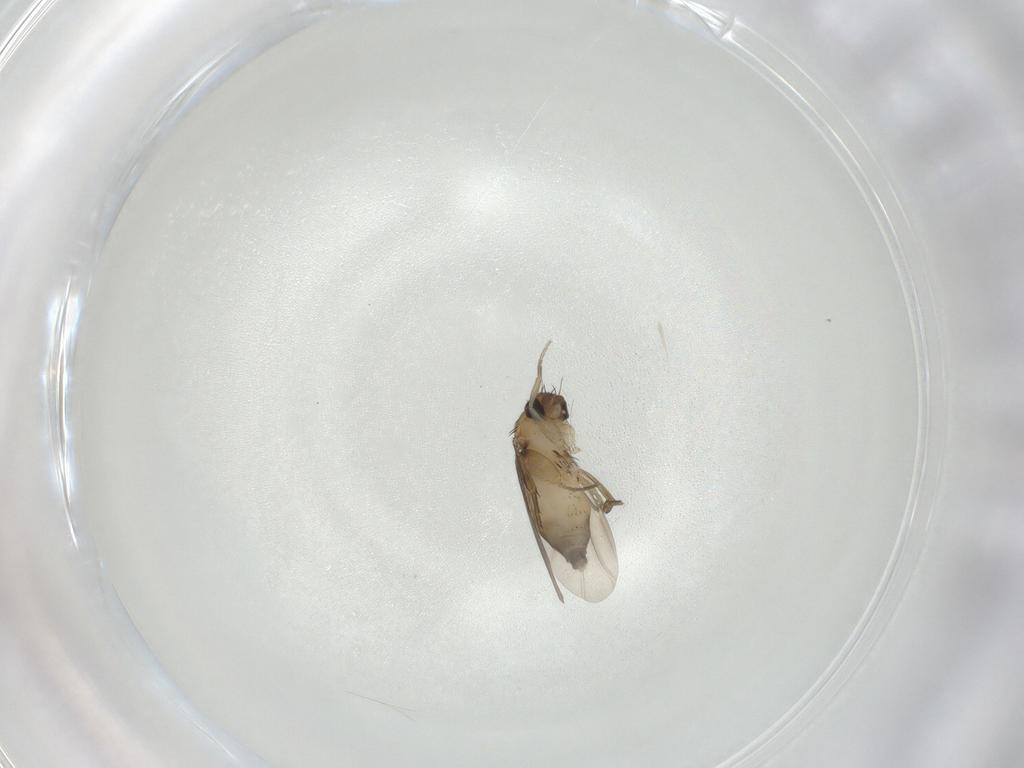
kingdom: Animalia
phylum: Arthropoda
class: Insecta
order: Diptera
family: Phoridae
